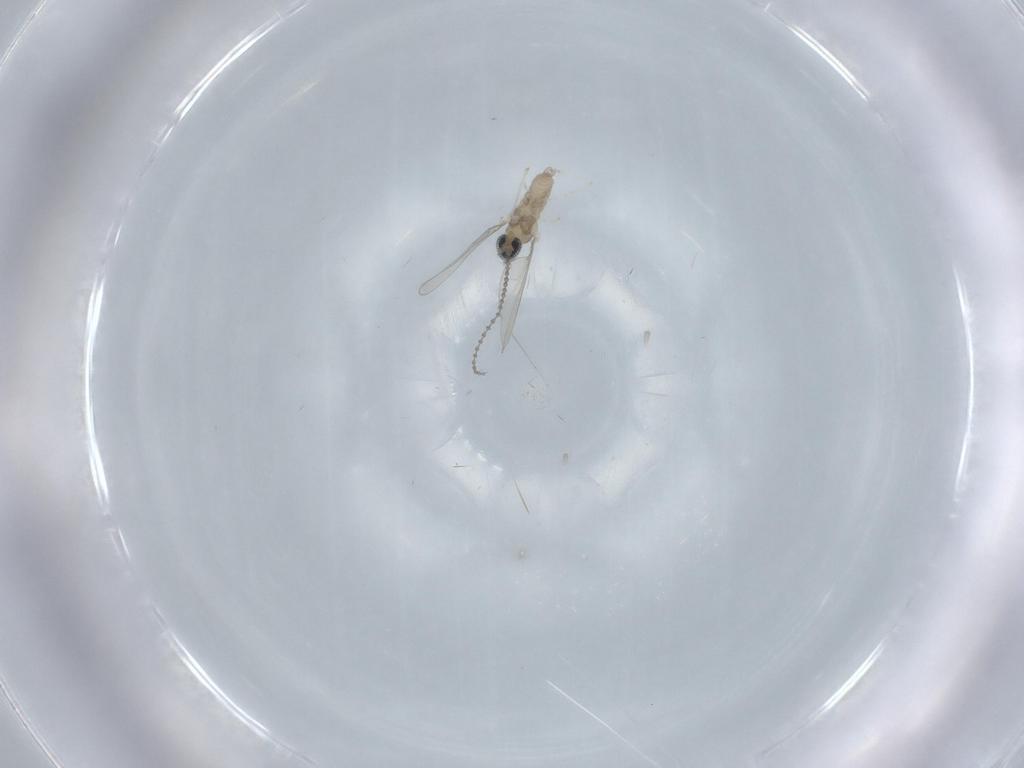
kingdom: Animalia
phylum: Arthropoda
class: Insecta
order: Diptera
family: Cecidomyiidae
